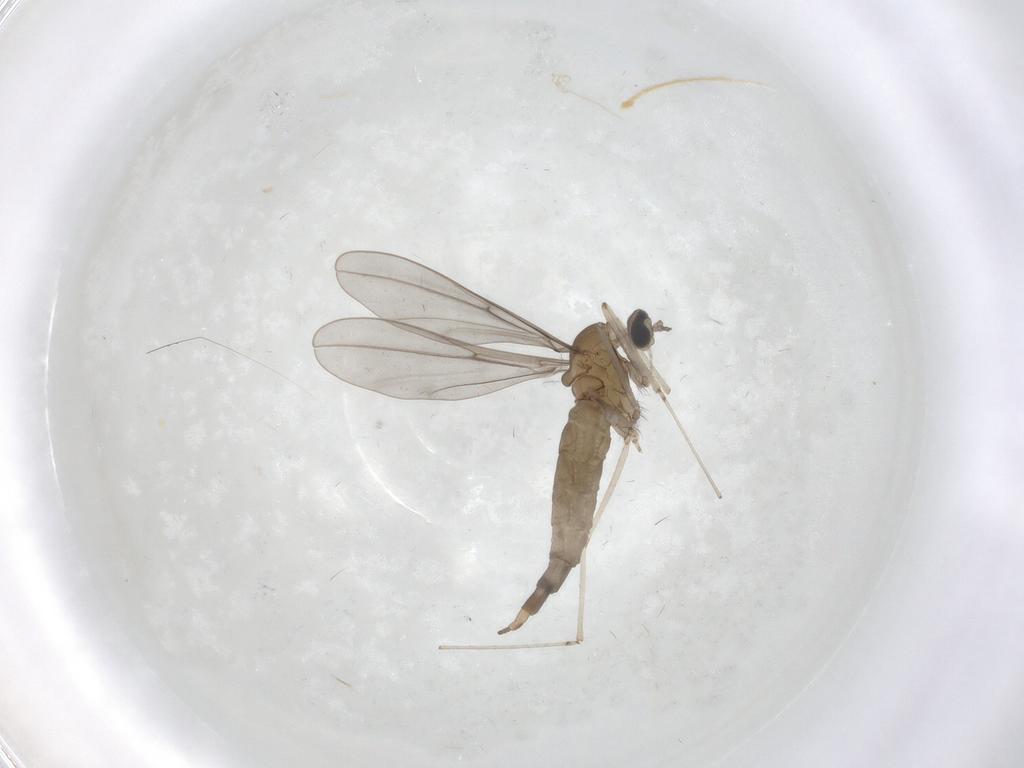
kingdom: Animalia
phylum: Arthropoda
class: Insecta
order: Diptera
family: Cecidomyiidae
